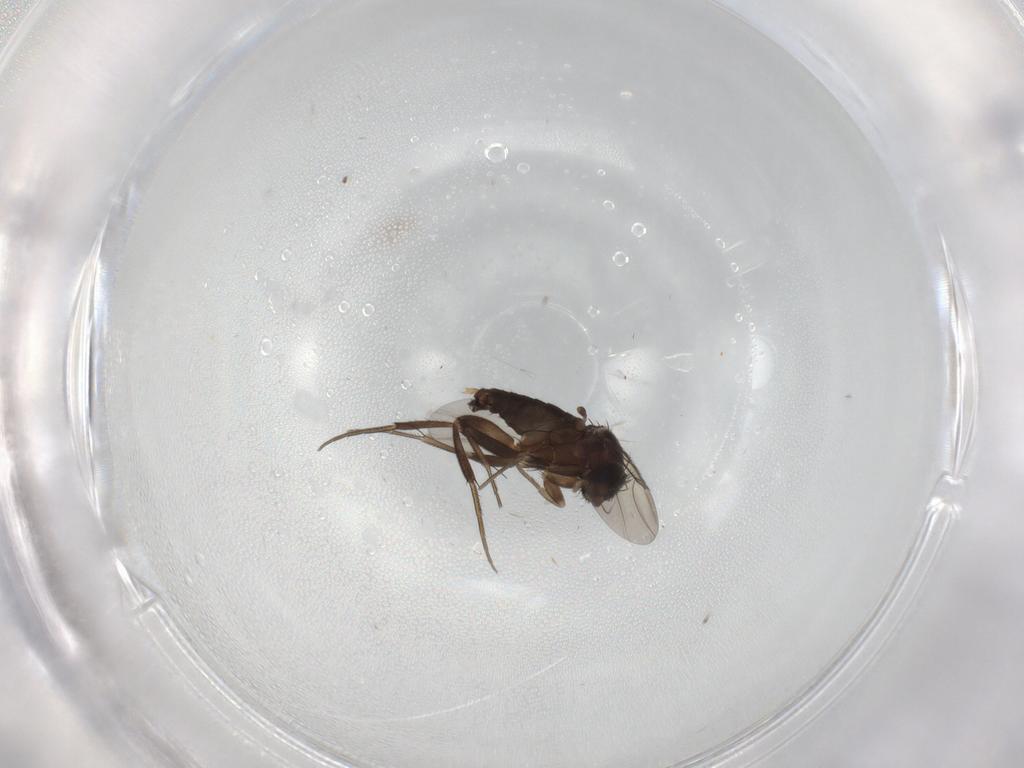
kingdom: Animalia
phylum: Arthropoda
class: Insecta
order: Diptera
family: Phoridae
